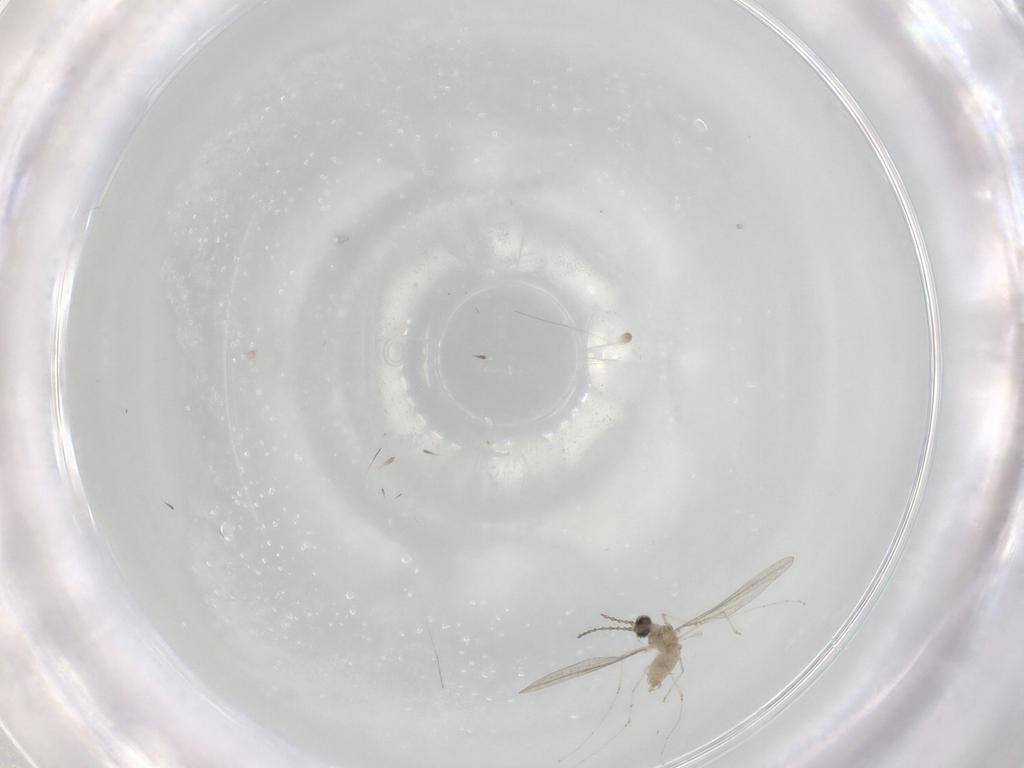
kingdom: Animalia
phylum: Arthropoda
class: Insecta
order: Diptera
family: Cecidomyiidae
